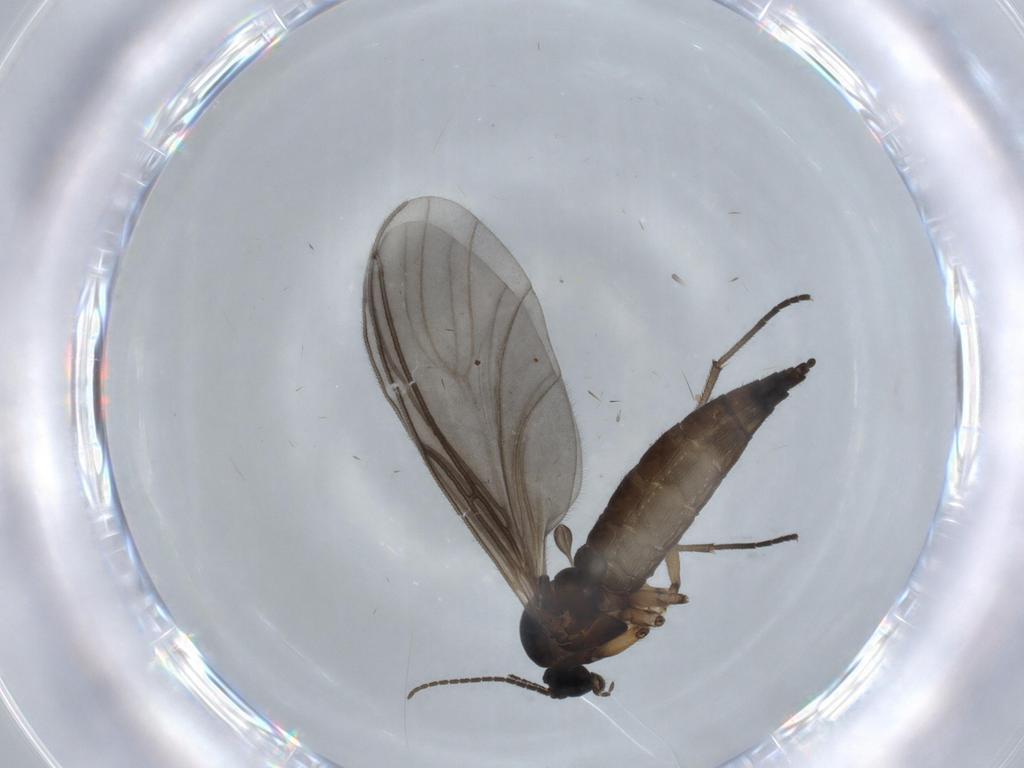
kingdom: Animalia
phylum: Arthropoda
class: Insecta
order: Diptera
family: Sciaridae
